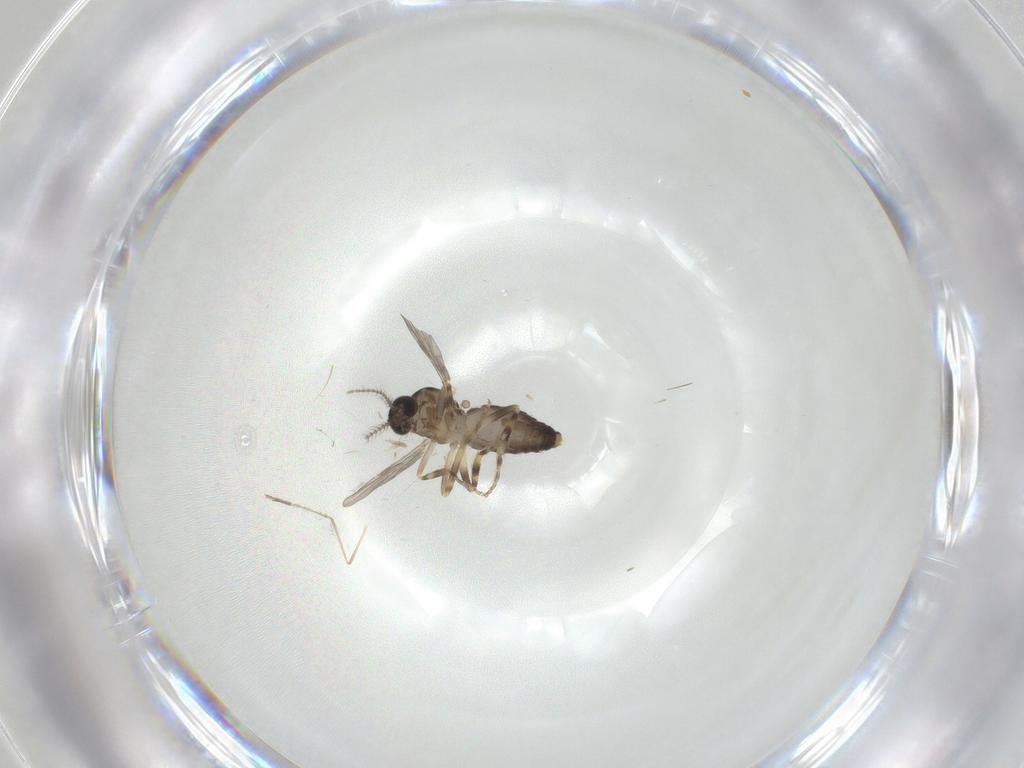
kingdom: Animalia
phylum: Arthropoda
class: Insecta
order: Diptera
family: Ceratopogonidae
